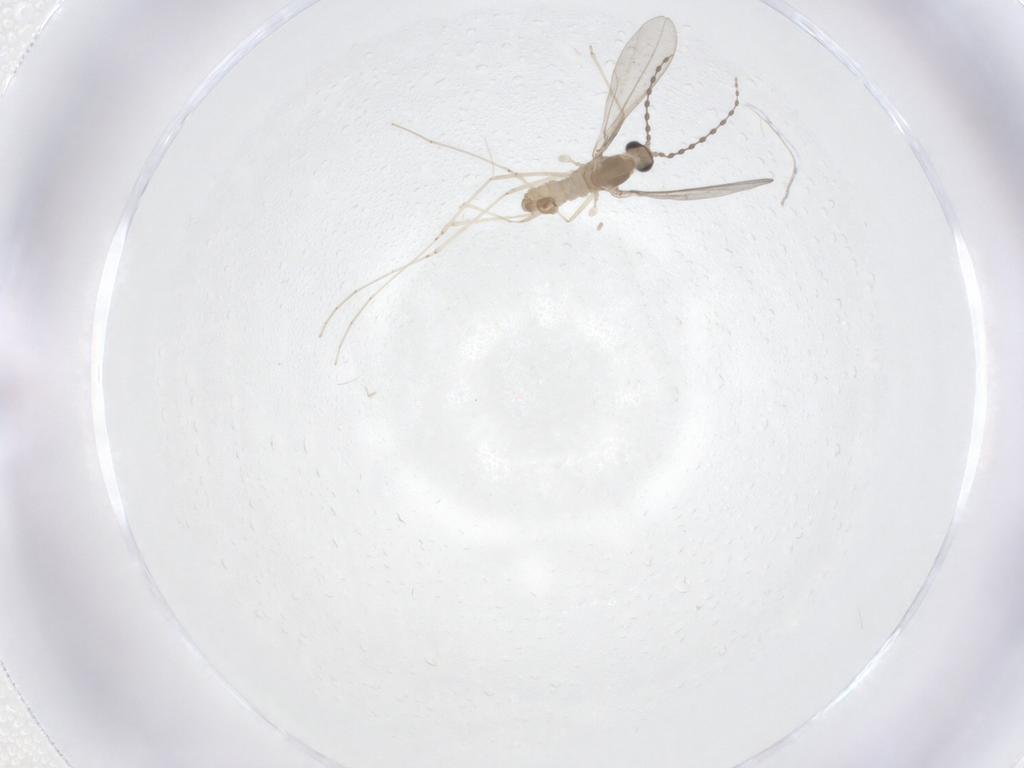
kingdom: Animalia
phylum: Arthropoda
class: Insecta
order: Diptera
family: Cecidomyiidae
